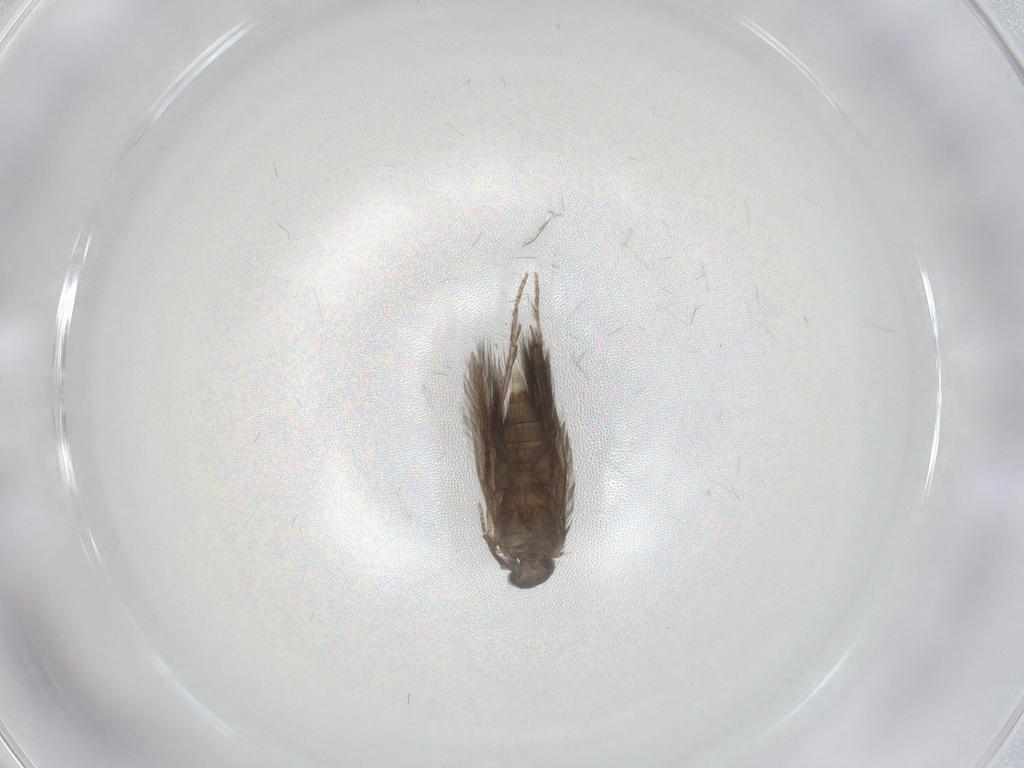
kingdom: Animalia
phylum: Arthropoda
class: Insecta
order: Trichoptera
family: Hydroptilidae
